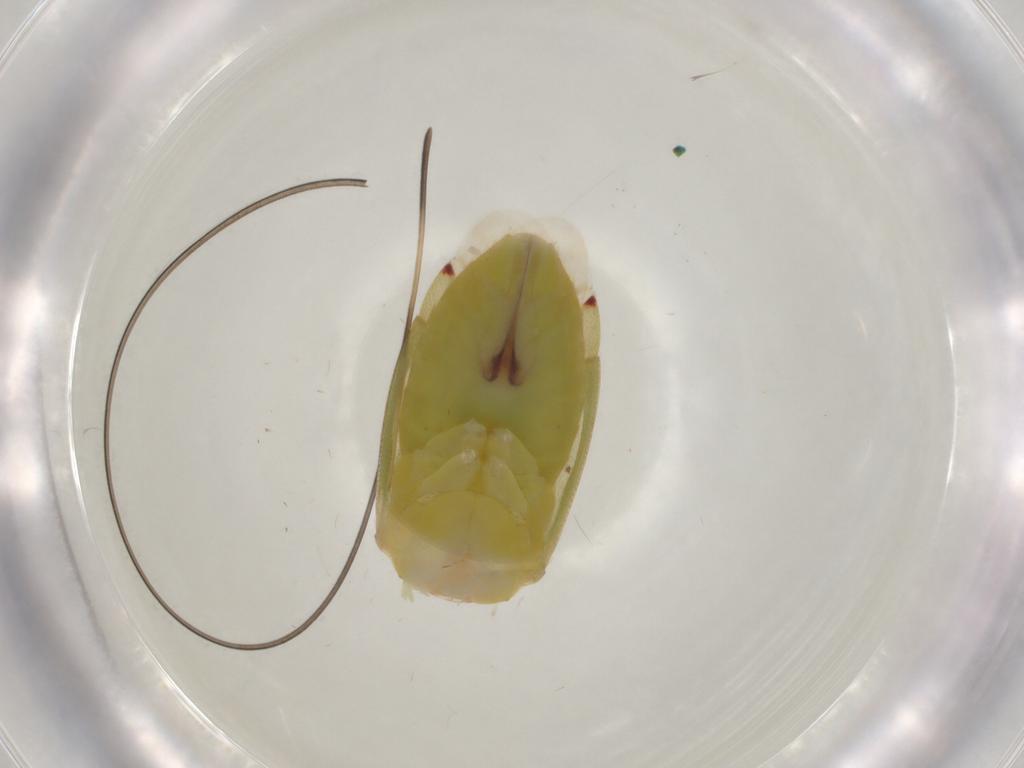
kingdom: Animalia
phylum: Arthropoda
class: Insecta
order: Hemiptera
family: Miridae
